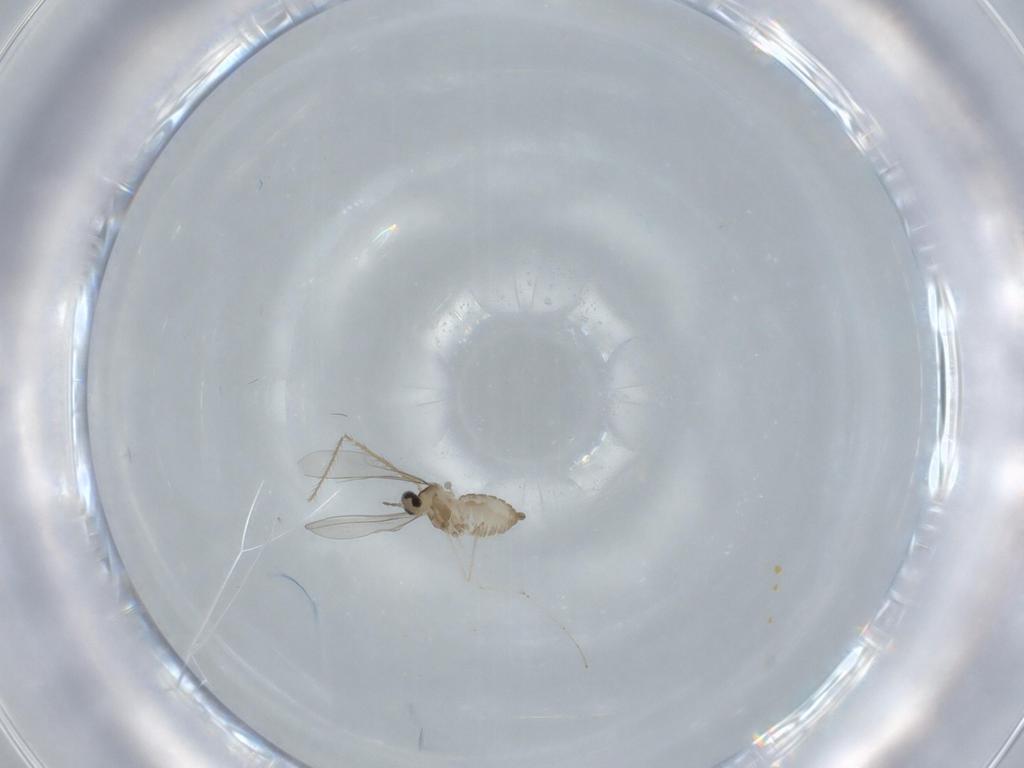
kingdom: Animalia
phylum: Arthropoda
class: Insecta
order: Diptera
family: Cecidomyiidae
